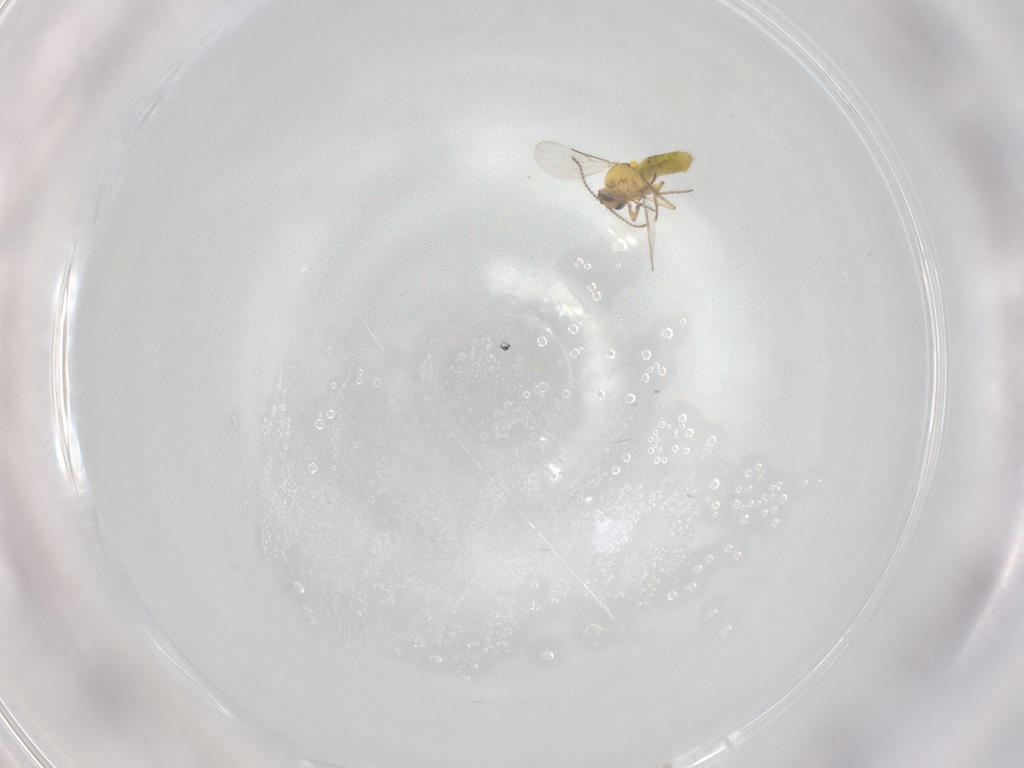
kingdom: Animalia
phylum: Arthropoda
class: Insecta
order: Diptera
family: Ceratopogonidae
